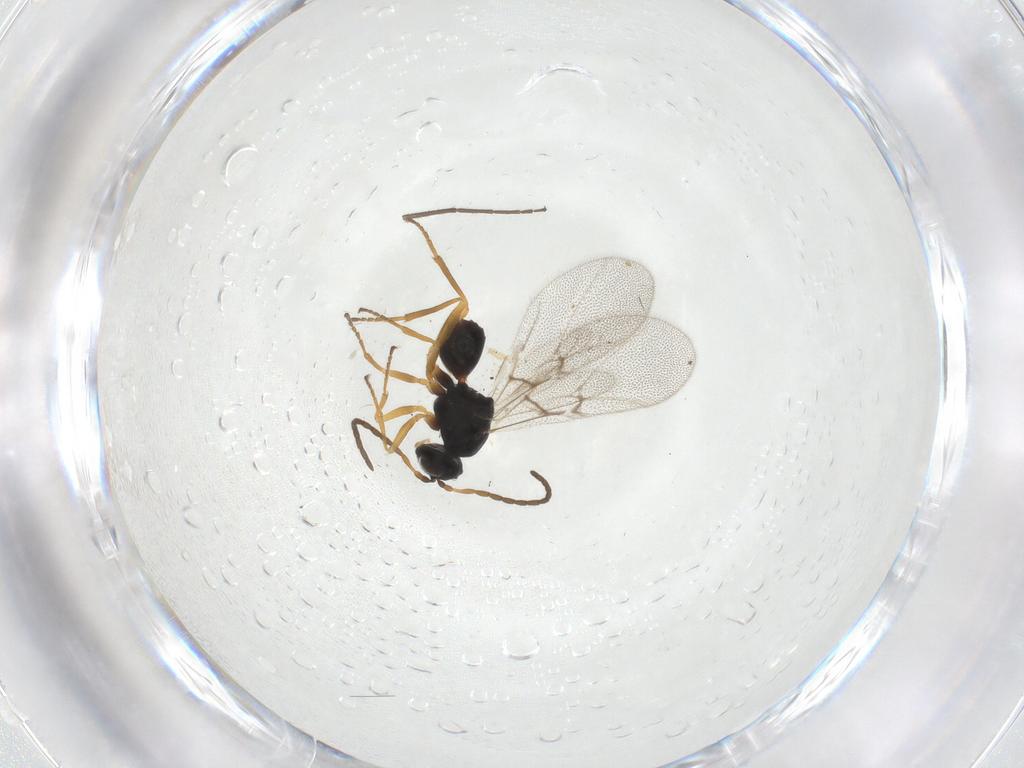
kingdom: Animalia
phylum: Arthropoda
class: Insecta
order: Hymenoptera
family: Cynipidae
